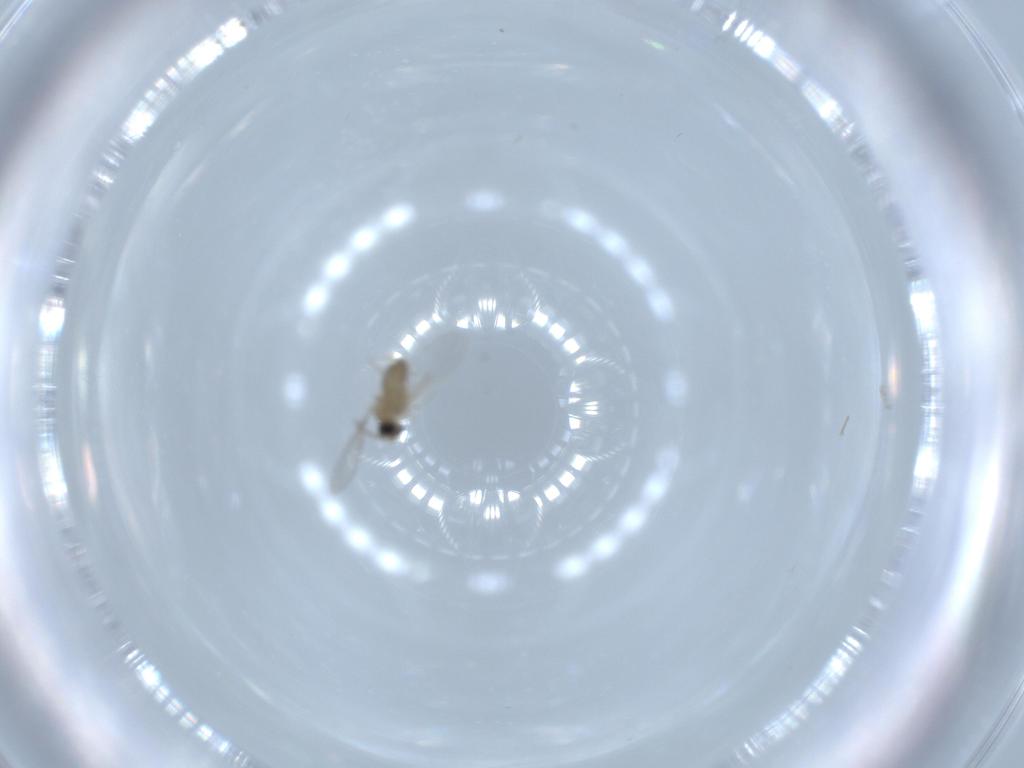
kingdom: Animalia
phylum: Arthropoda
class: Insecta
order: Diptera
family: Cecidomyiidae
